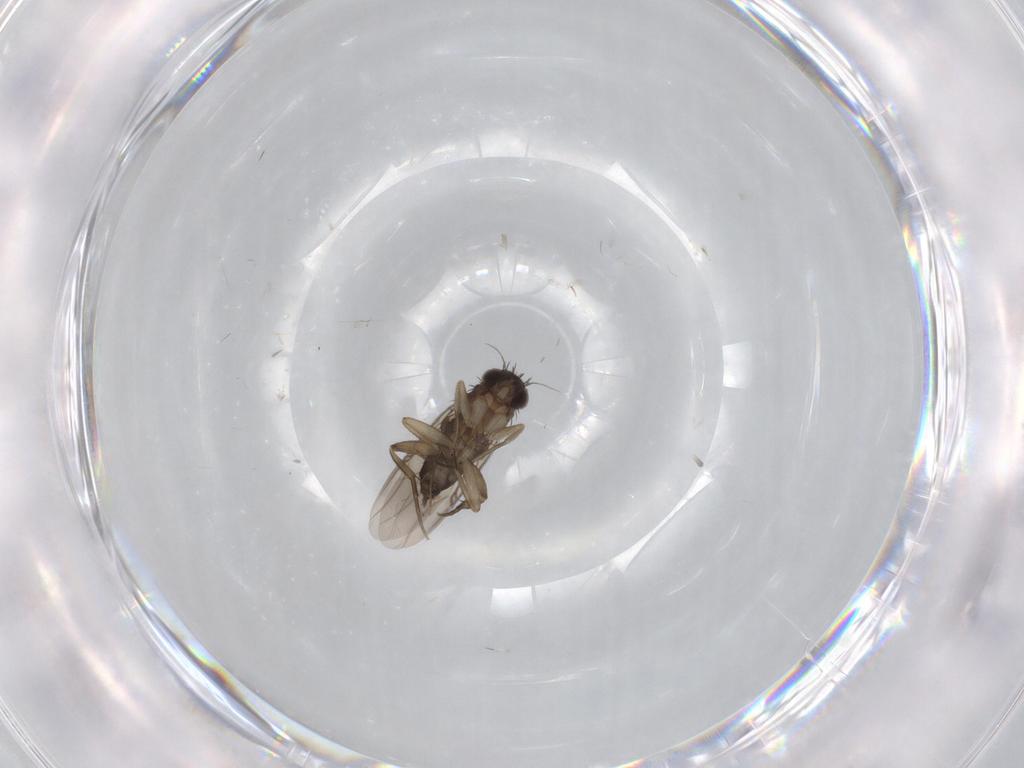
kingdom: Animalia
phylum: Arthropoda
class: Insecta
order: Diptera
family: Phoridae
